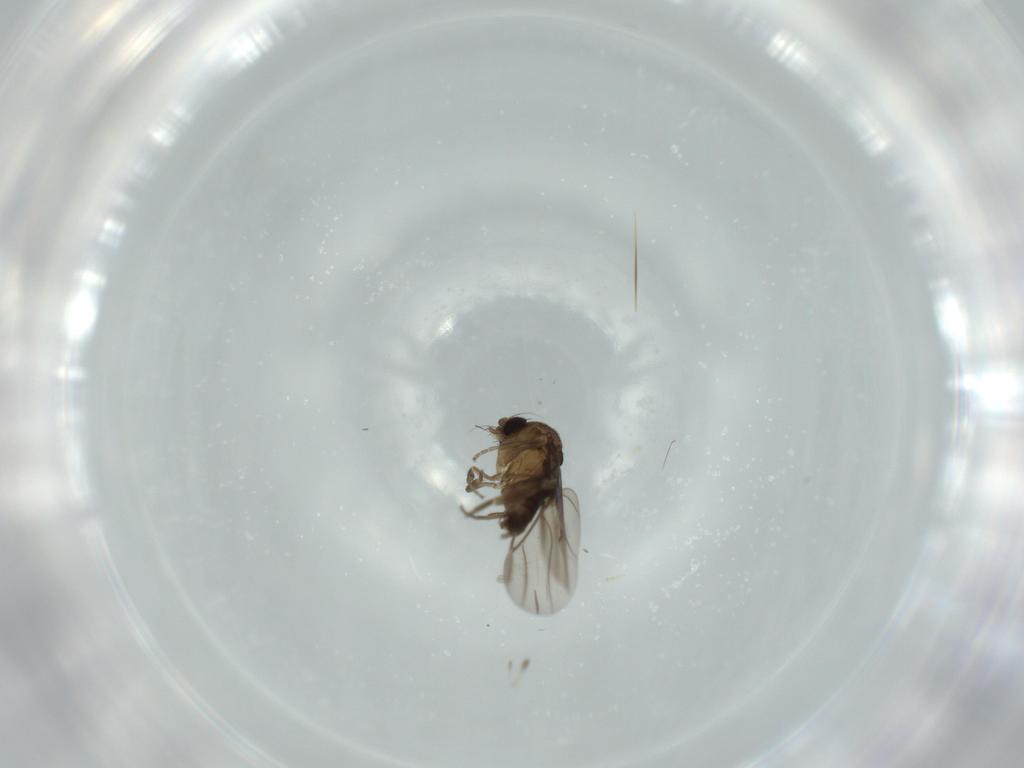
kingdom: Animalia
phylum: Arthropoda
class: Insecta
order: Diptera
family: Phoridae
